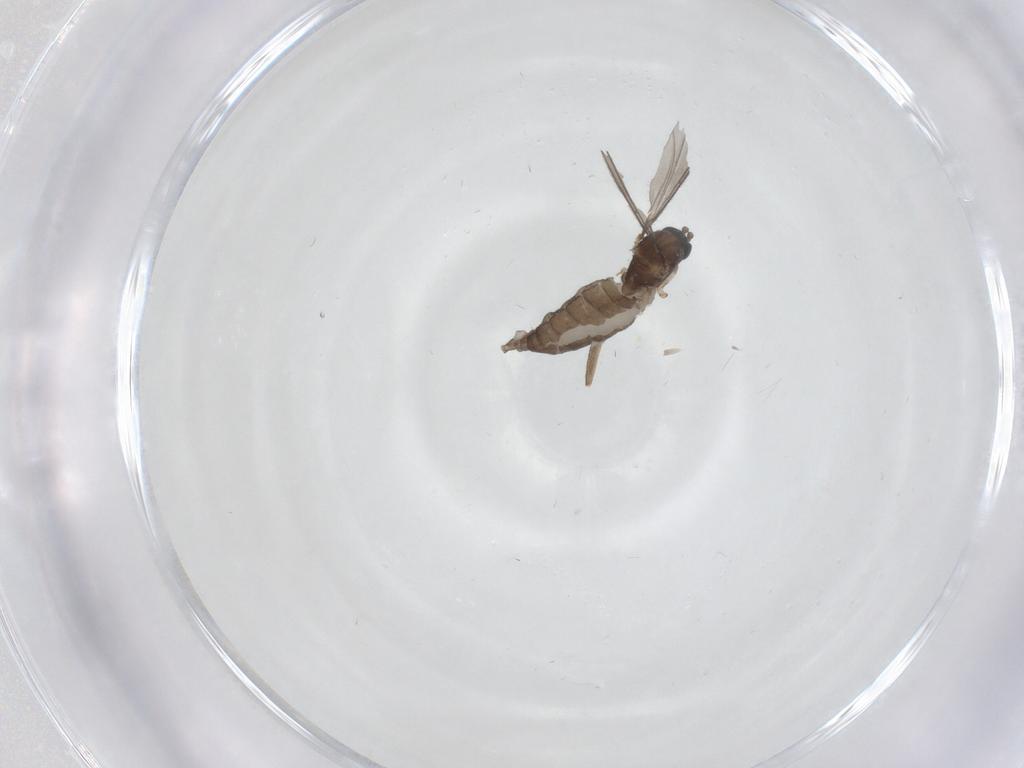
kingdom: Animalia
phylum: Arthropoda
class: Insecta
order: Diptera
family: Sciaridae
